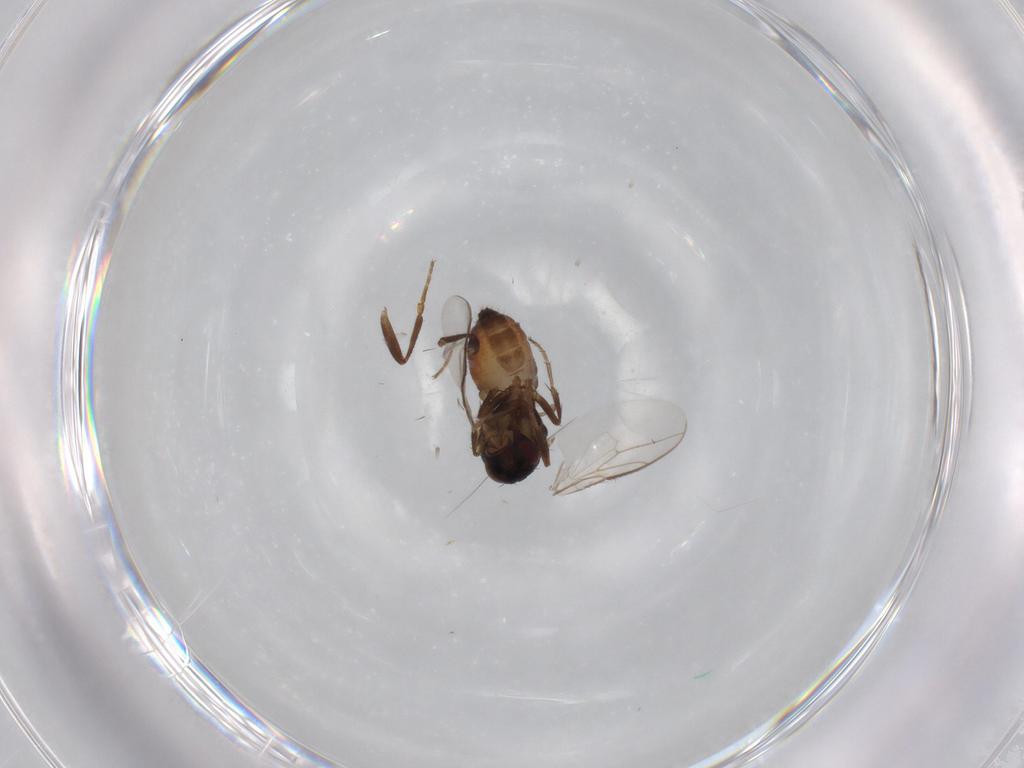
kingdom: Animalia
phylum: Arthropoda
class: Insecta
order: Diptera
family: Sphaeroceridae
